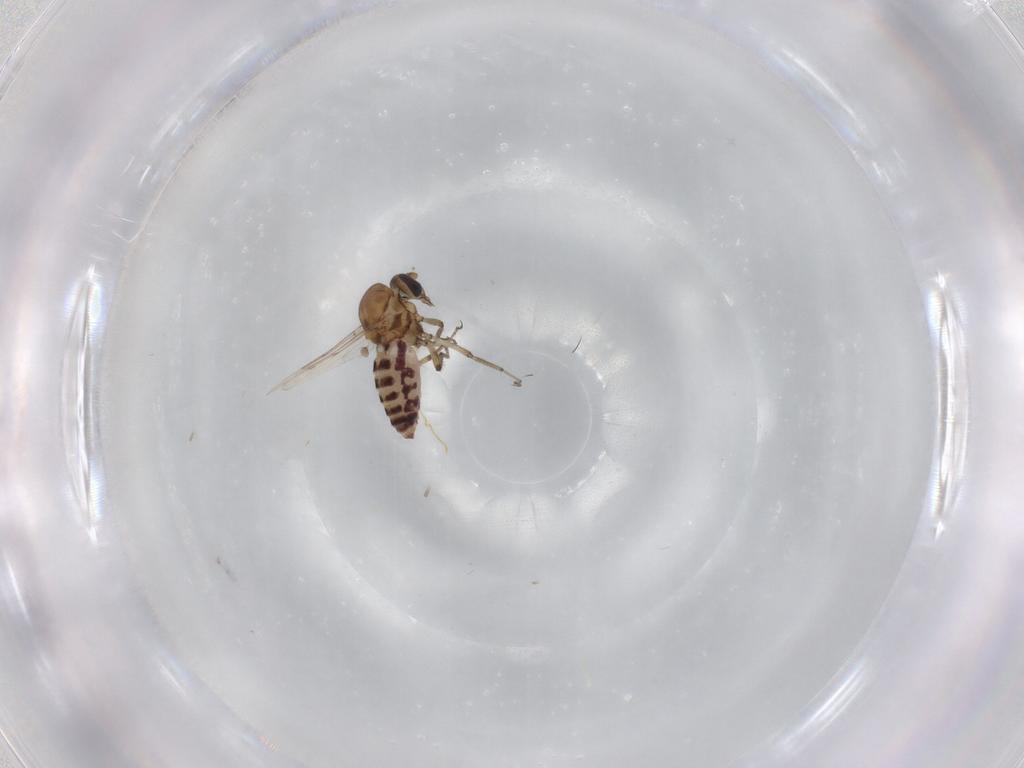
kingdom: Animalia
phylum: Arthropoda
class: Insecta
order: Diptera
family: Ceratopogonidae
